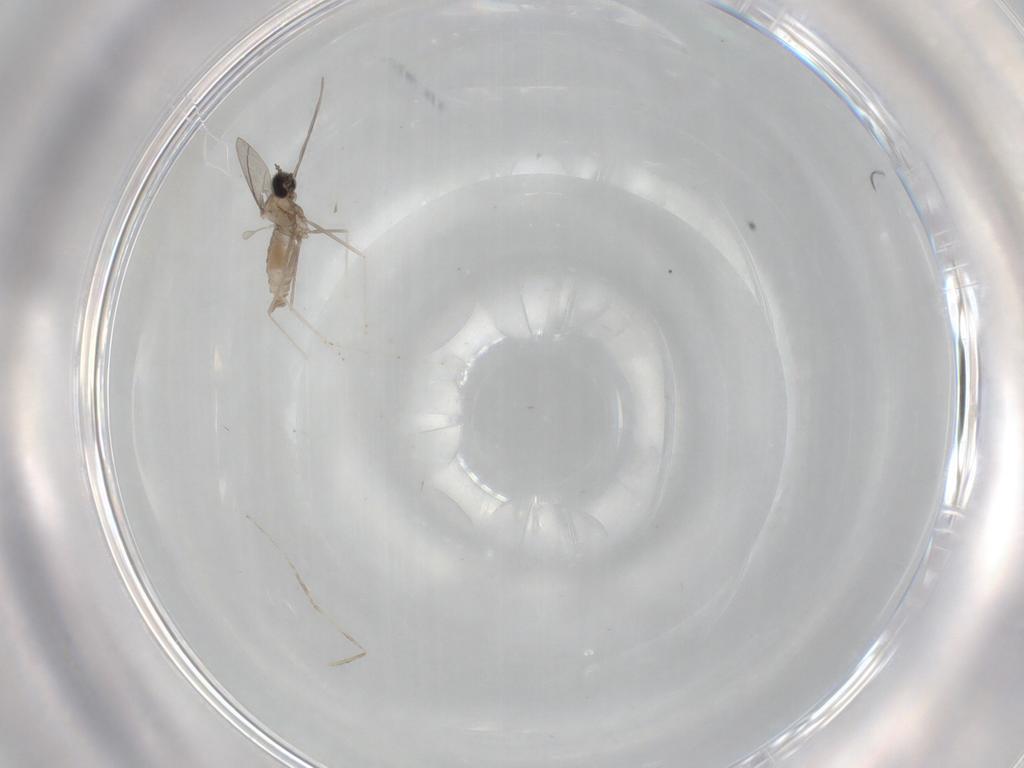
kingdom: Animalia
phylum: Arthropoda
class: Insecta
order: Diptera
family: Cecidomyiidae
